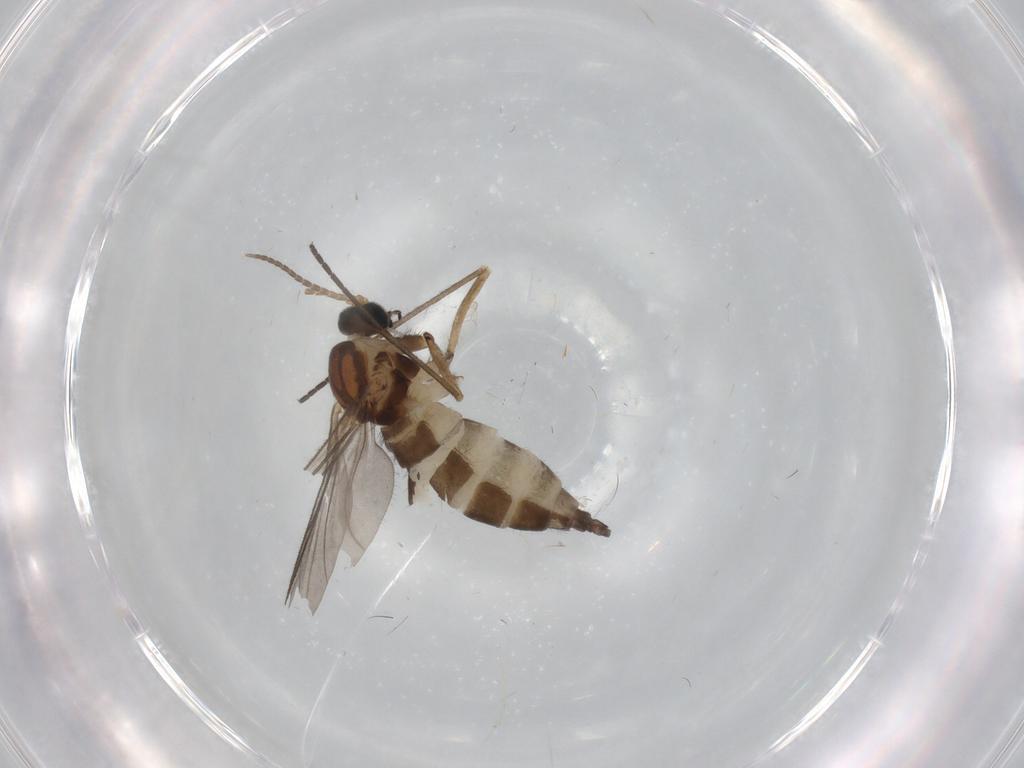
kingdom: Animalia
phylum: Arthropoda
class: Insecta
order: Diptera
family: Sciaridae
